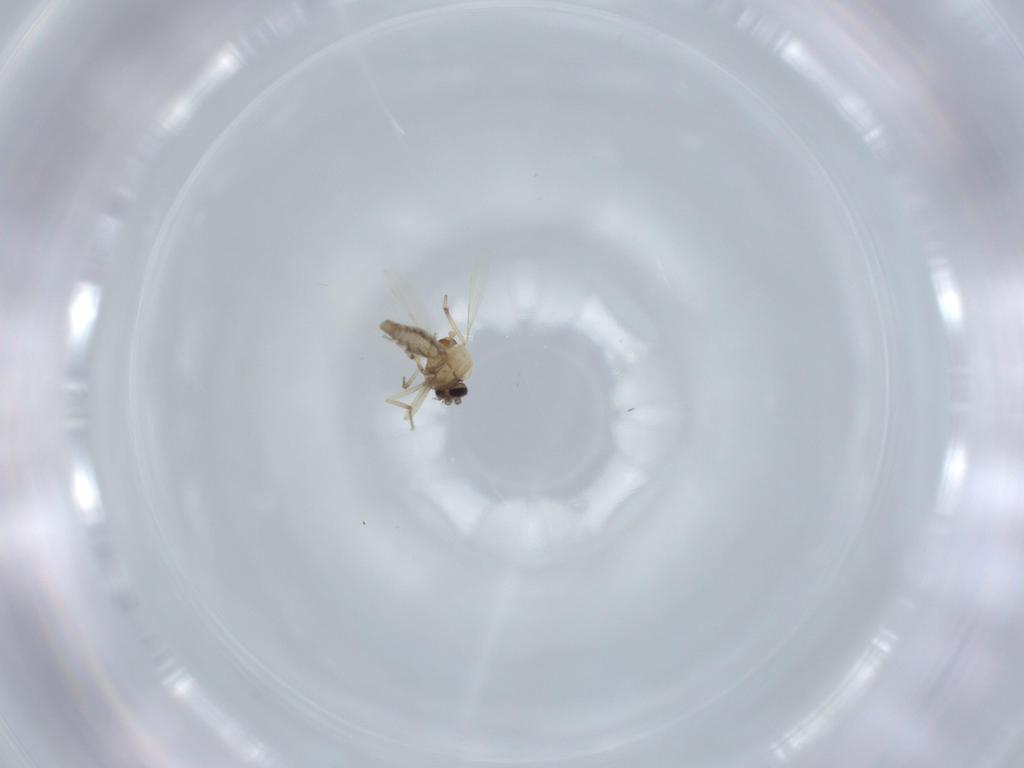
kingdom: Animalia
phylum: Arthropoda
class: Insecta
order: Diptera
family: Ceratopogonidae
